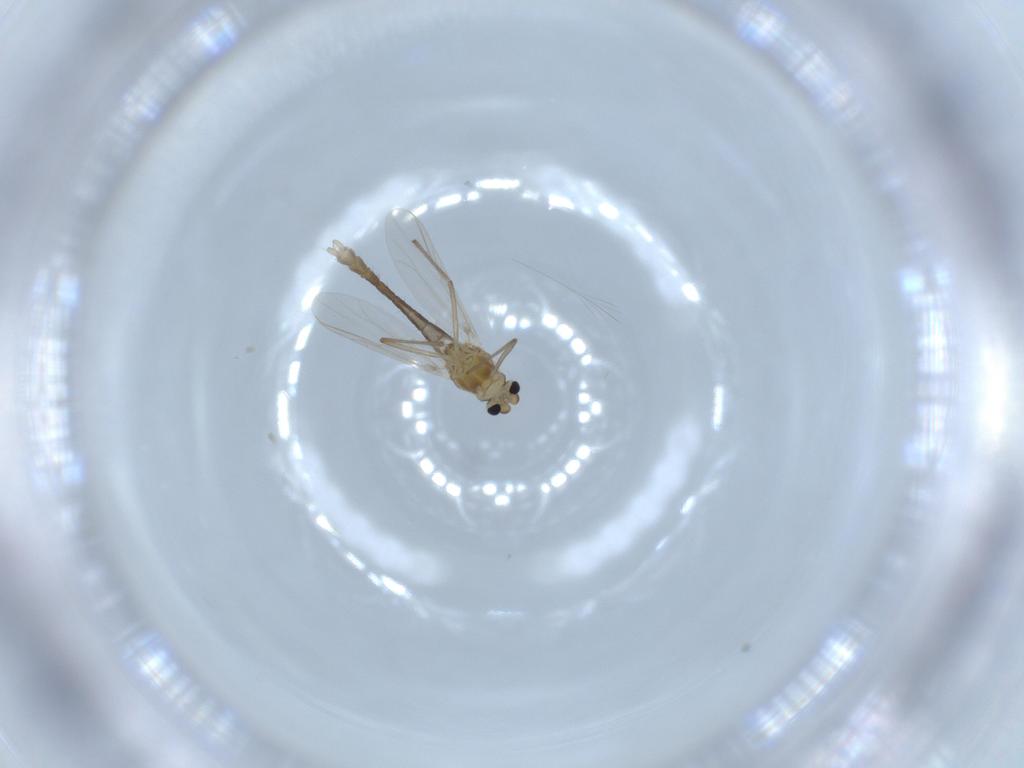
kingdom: Animalia
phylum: Arthropoda
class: Insecta
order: Diptera
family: Chironomidae
